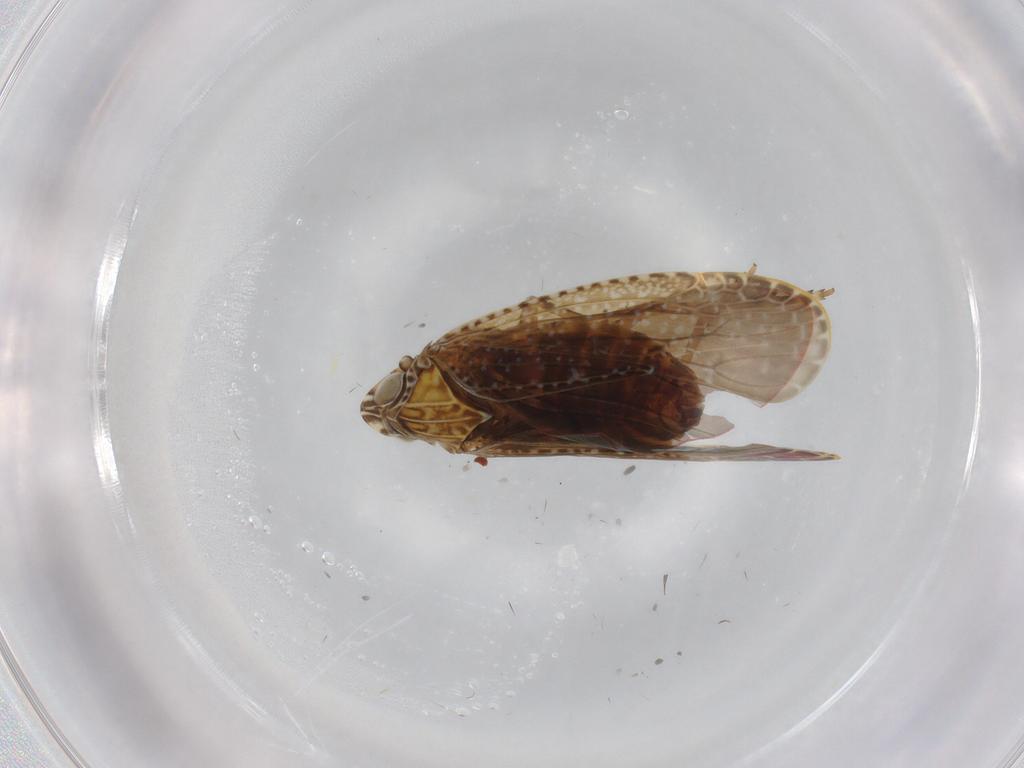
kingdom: Animalia
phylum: Arthropoda
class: Insecta
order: Hemiptera
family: Achilidae
